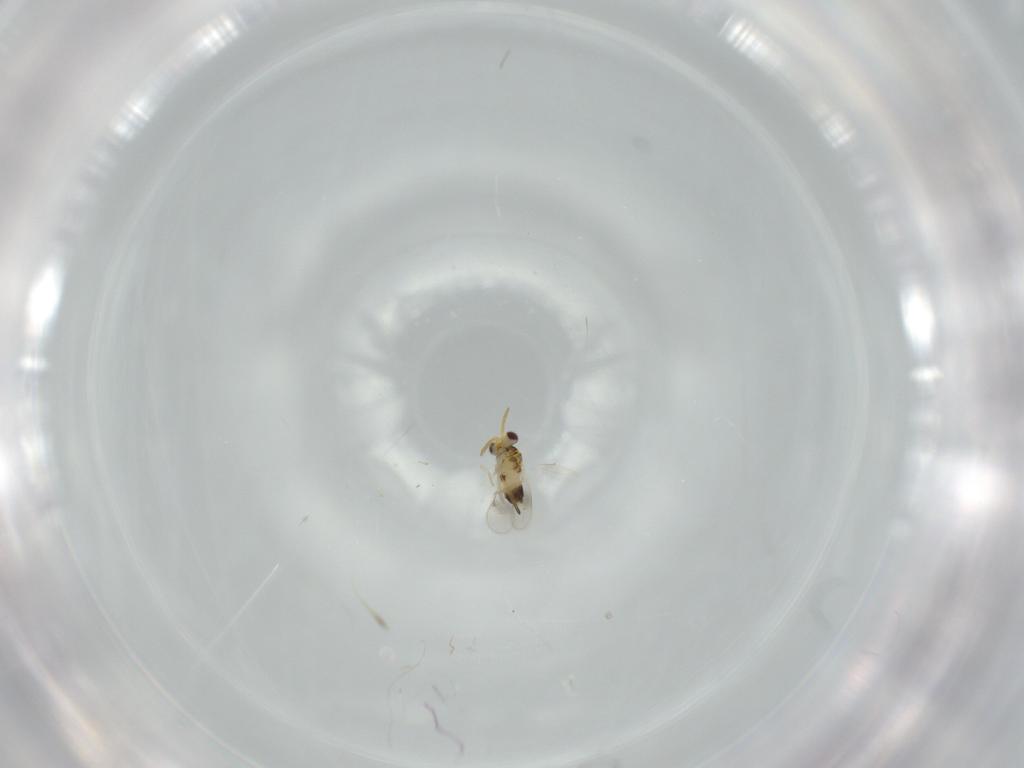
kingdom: Animalia
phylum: Arthropoda
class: Insecta
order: Hymenoptera
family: Aphelinidae
